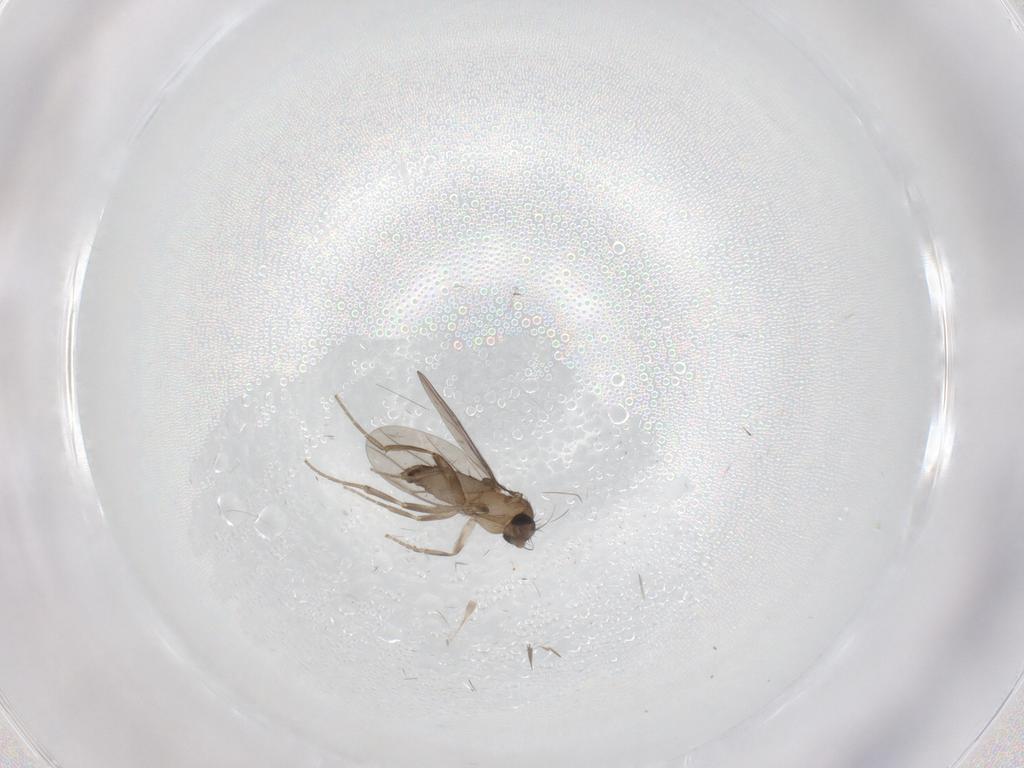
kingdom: Animalia
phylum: Arthropoda
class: Insecta
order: Diptera
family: Cecidomyiidae
